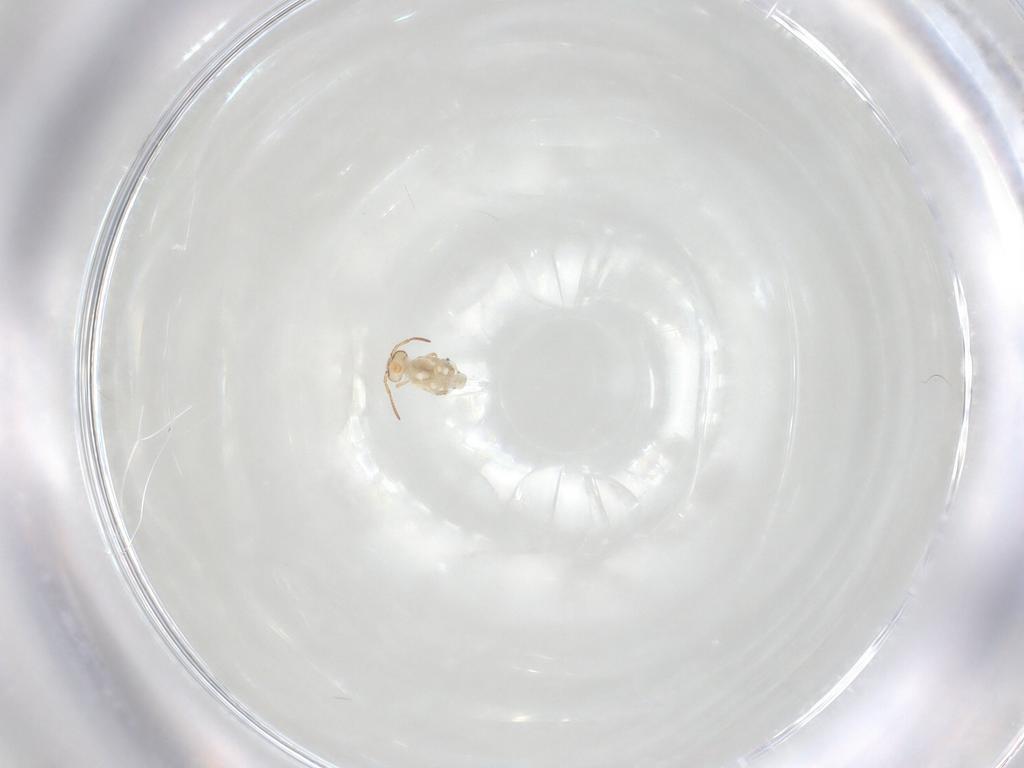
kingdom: Animalia
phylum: Arthropoda
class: Collembola
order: Symphypleona
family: Bourletiellidae
